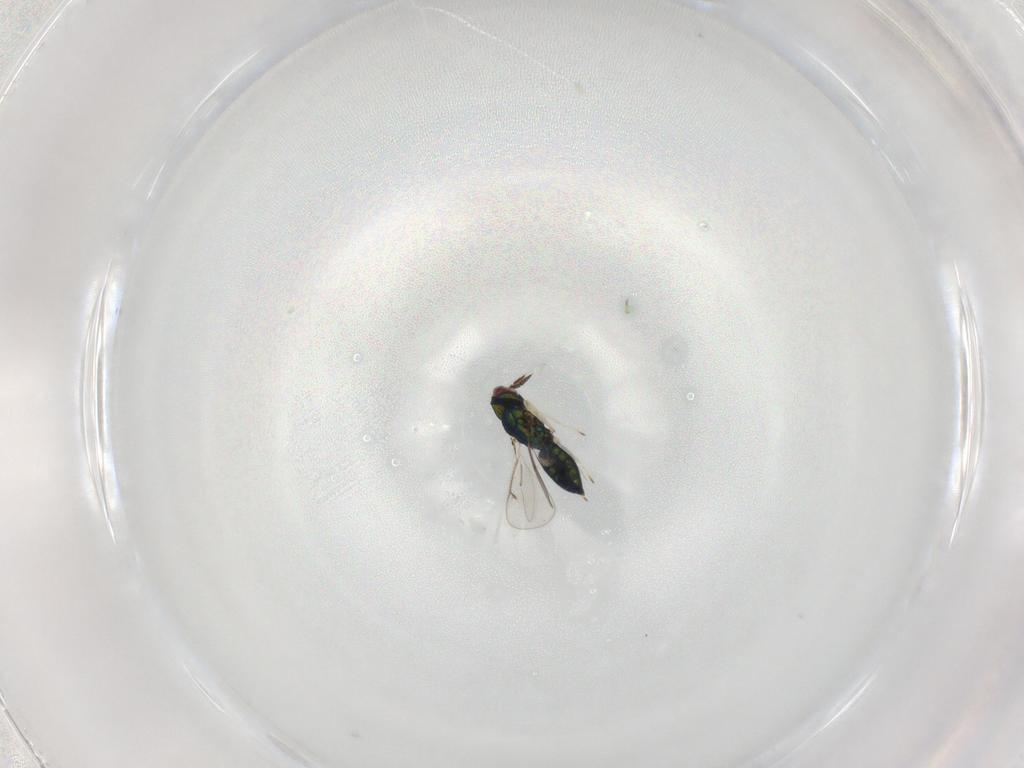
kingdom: Animalia
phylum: Arthropoda
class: Insecta
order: Hymenoptera
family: Eulophidae
